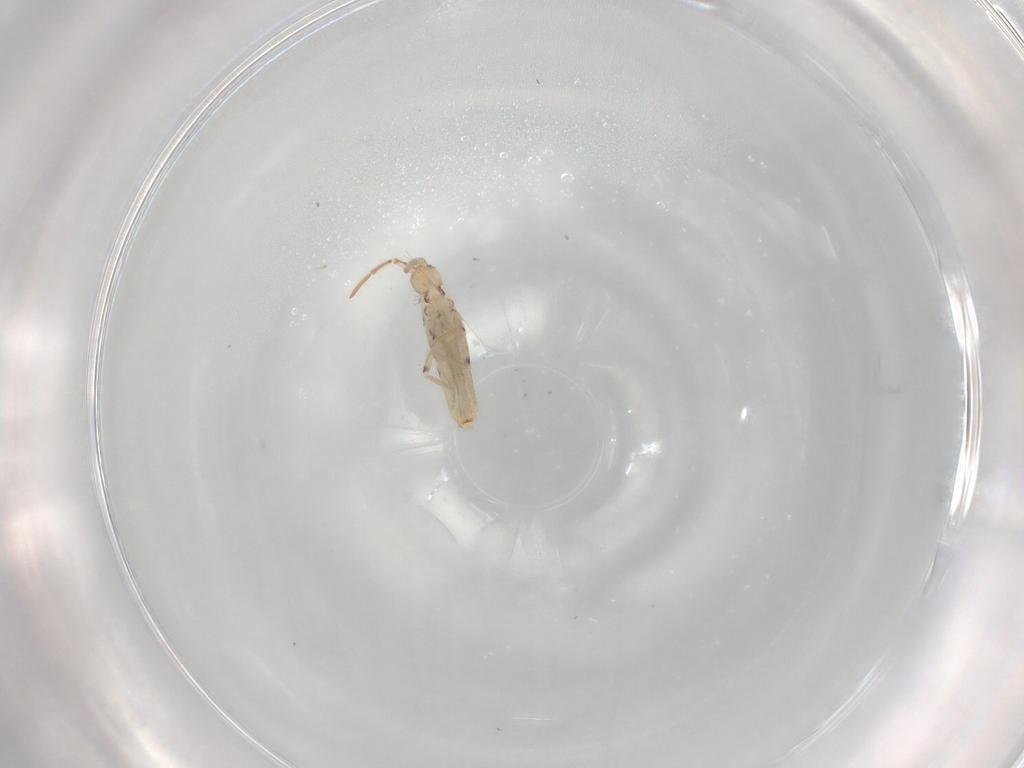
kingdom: Animalia
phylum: Arthropoda
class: Collembola
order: Entomobryomorpha
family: Entomobryidae
